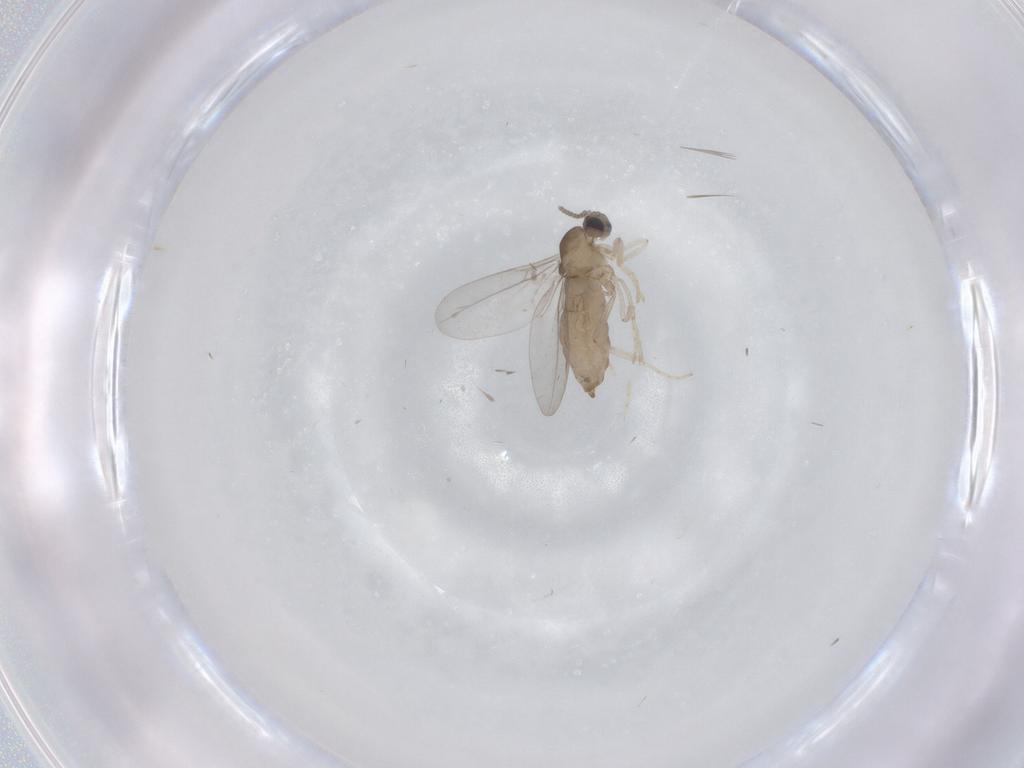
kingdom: Animalia
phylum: Arthropoda
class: Insecta
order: Diptera
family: Cecidomyiidae
